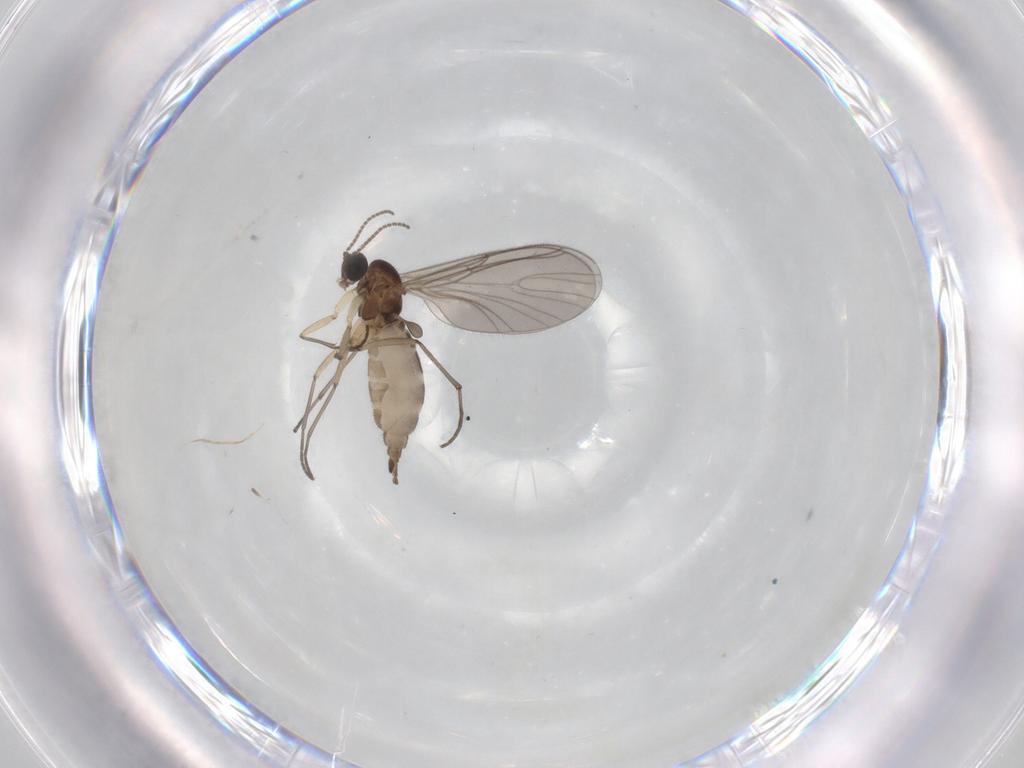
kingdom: Animalia
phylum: Arthropoda
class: Insecta
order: Diptera
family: Sciaridae
